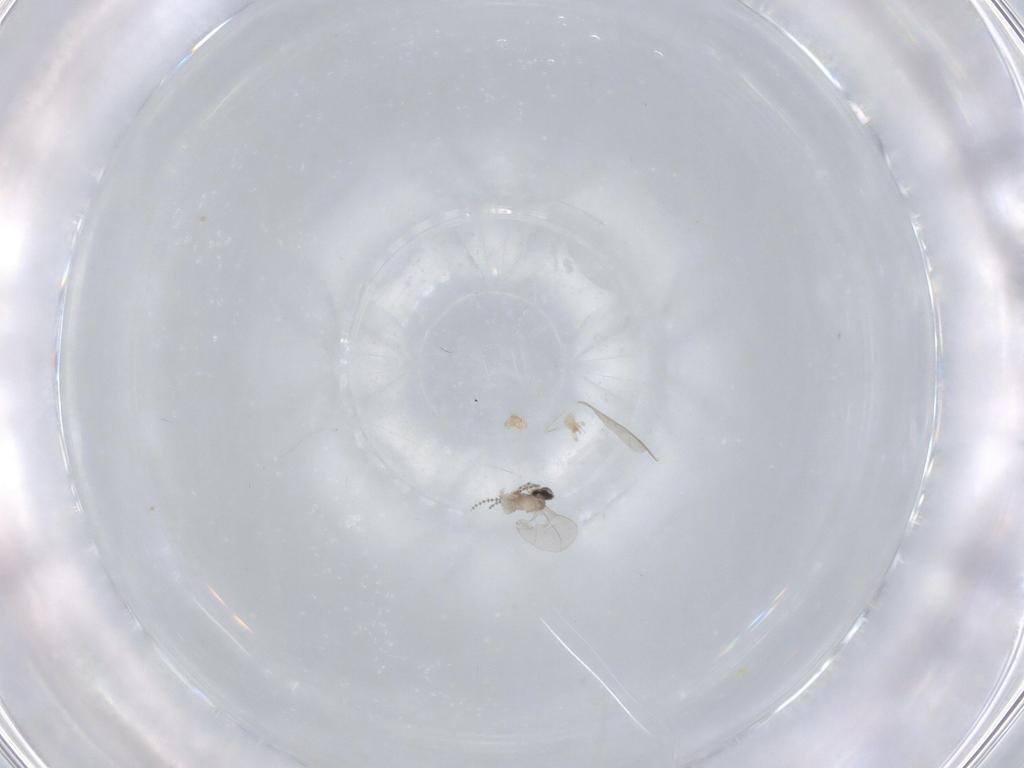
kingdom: Animalia
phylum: Arthropoda
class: Insecta
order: Diptera
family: Cecidomyiidae
